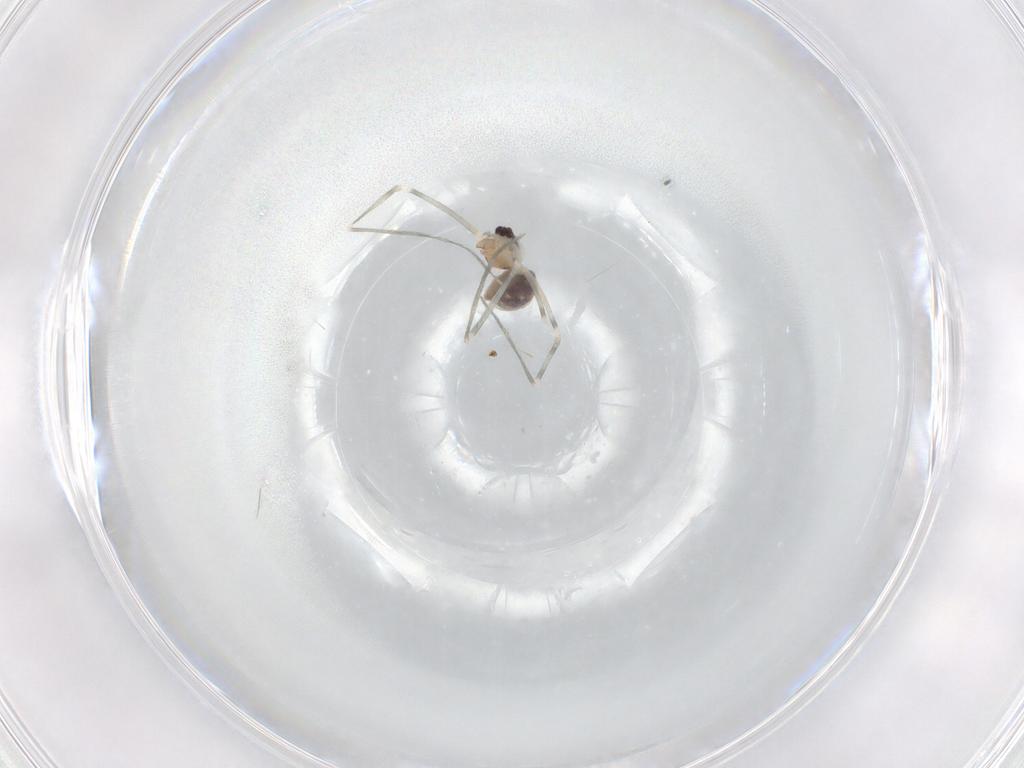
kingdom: Animalia
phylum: Arthropoda
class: Arachnida
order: Araneae
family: Pholcidae
